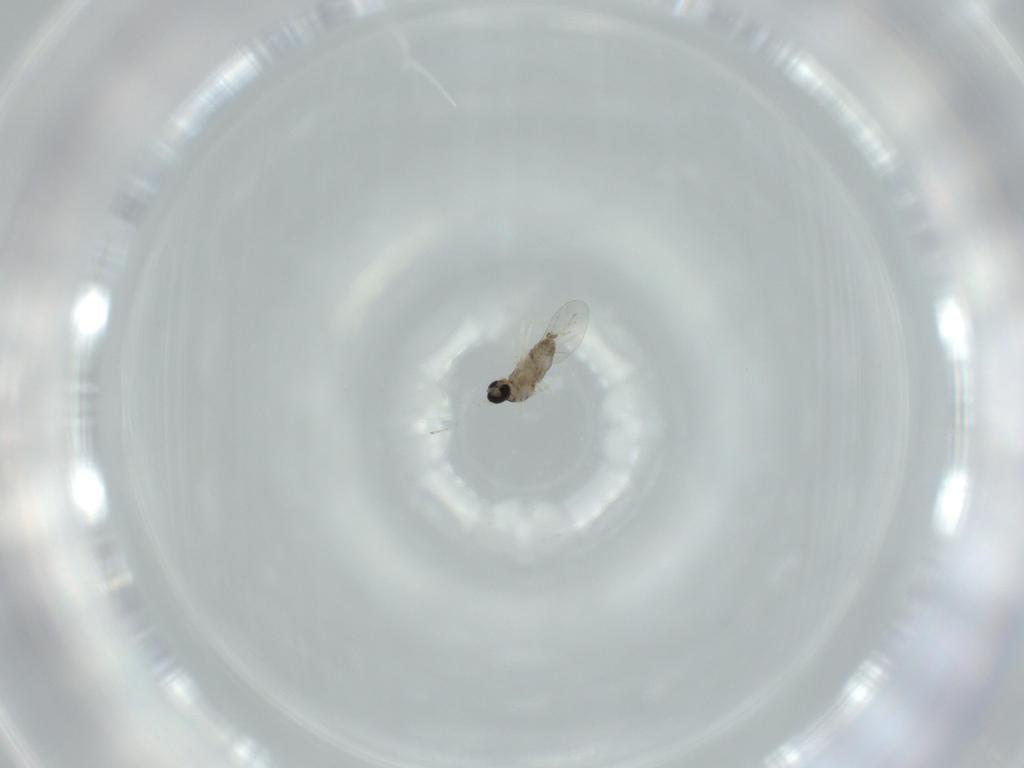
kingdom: Animalia
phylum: Arthropoda
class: Insecta
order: Diptera
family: Cecidomyiidae
